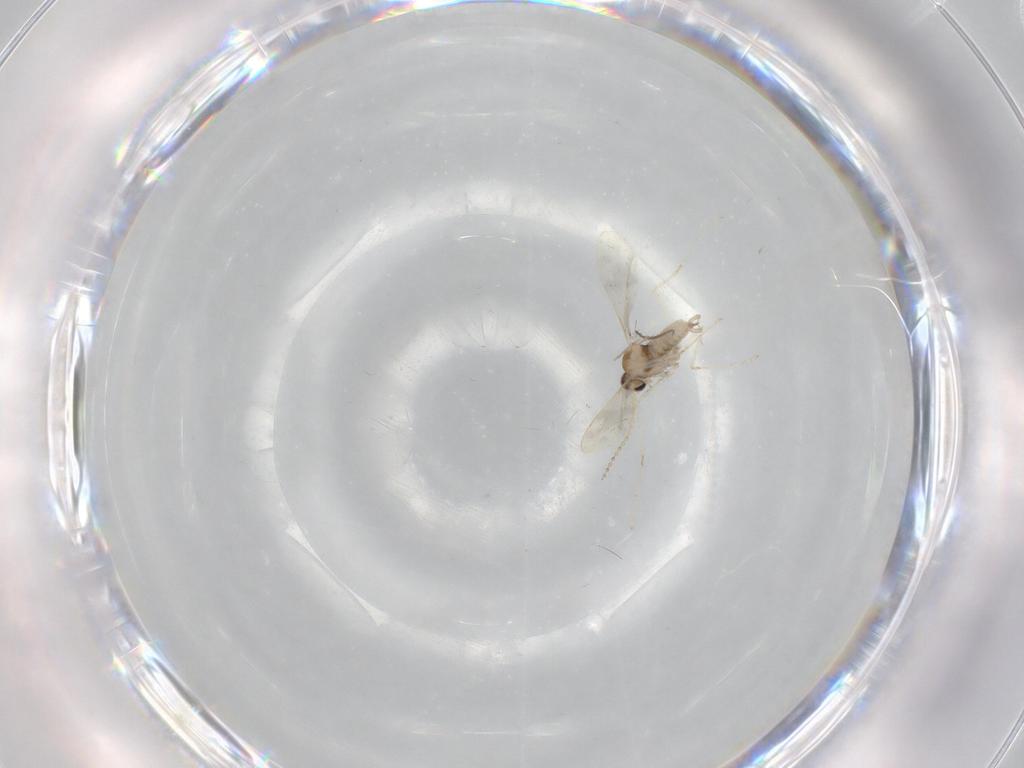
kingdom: Animalia
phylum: Arthropoda
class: Insecta
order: Diptera
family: Cecidomyiidae
